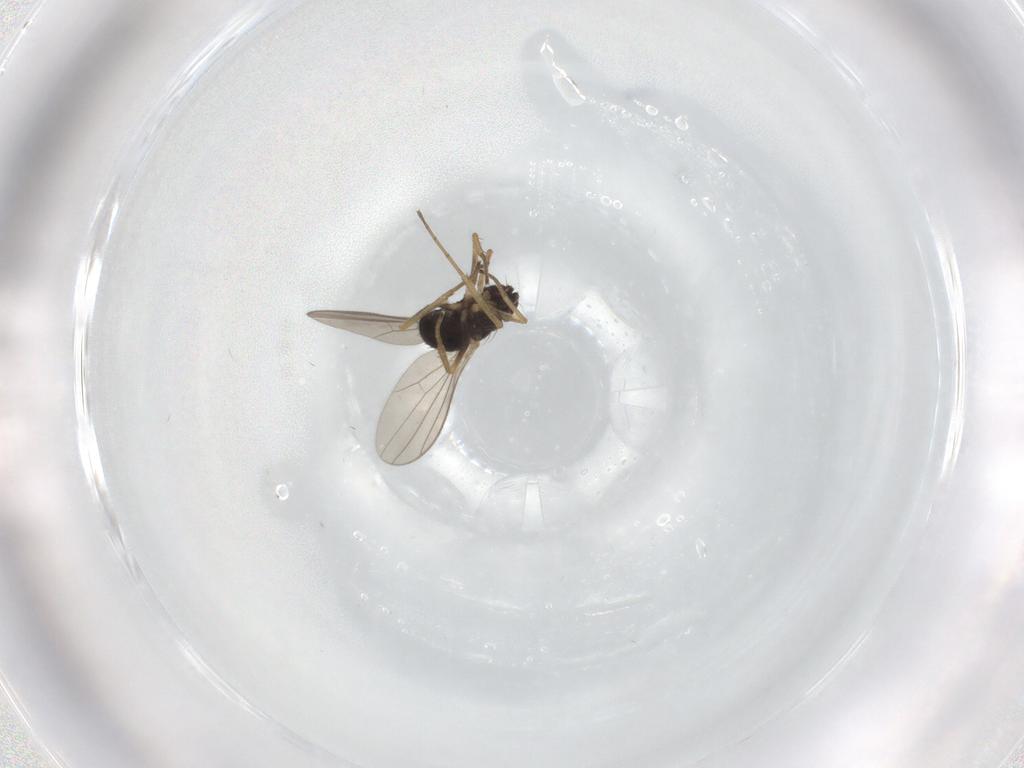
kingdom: Animalia
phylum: Arthropoda
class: Insecta
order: Diptera
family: Dolichopodidae
